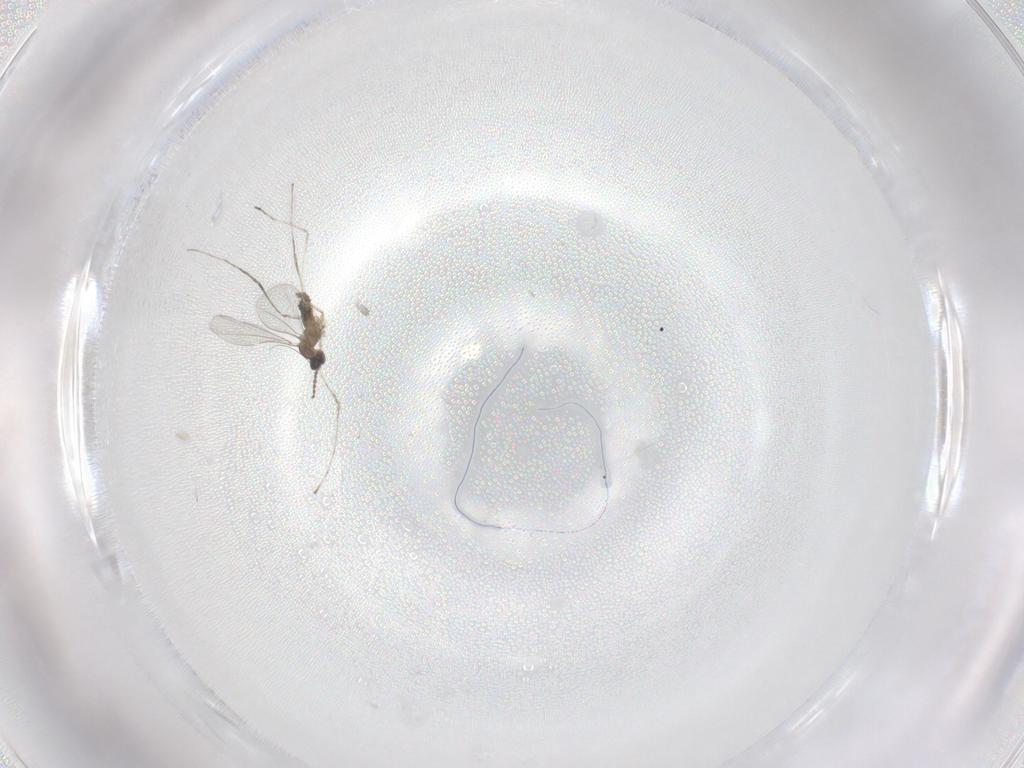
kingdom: Animalia
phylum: Arthropoda
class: Insecta
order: Diptera
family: Cecidomyiidae
